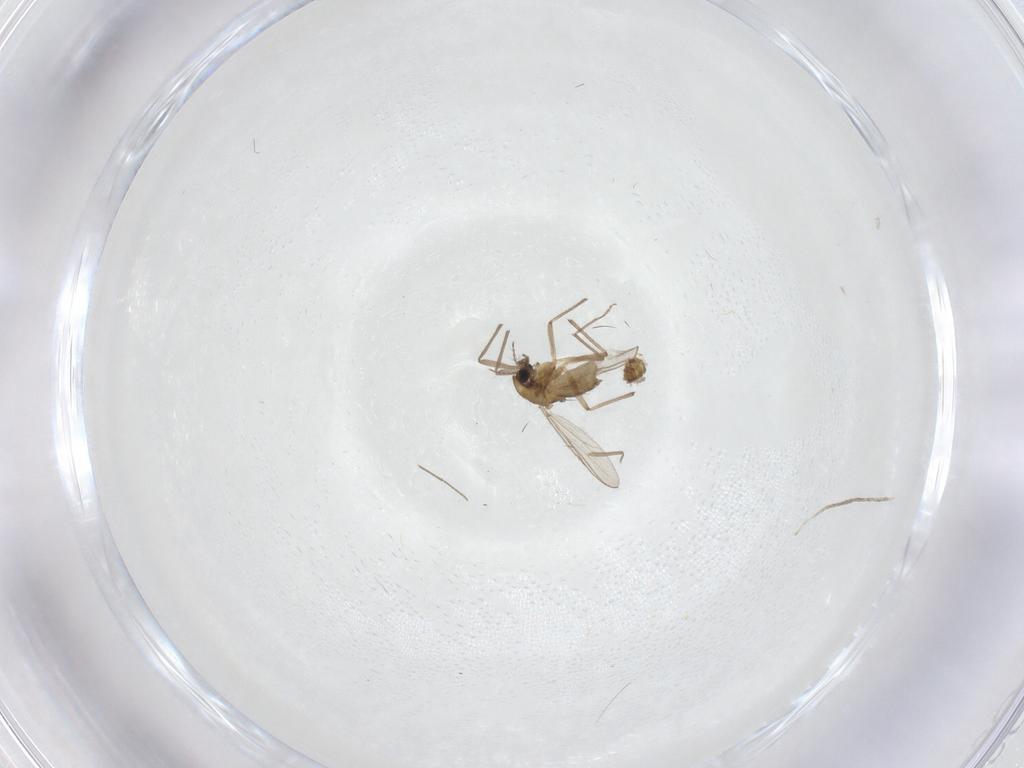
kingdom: Animalia
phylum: Arthropoda
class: Insecta
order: Diptera
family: Chironomidae
